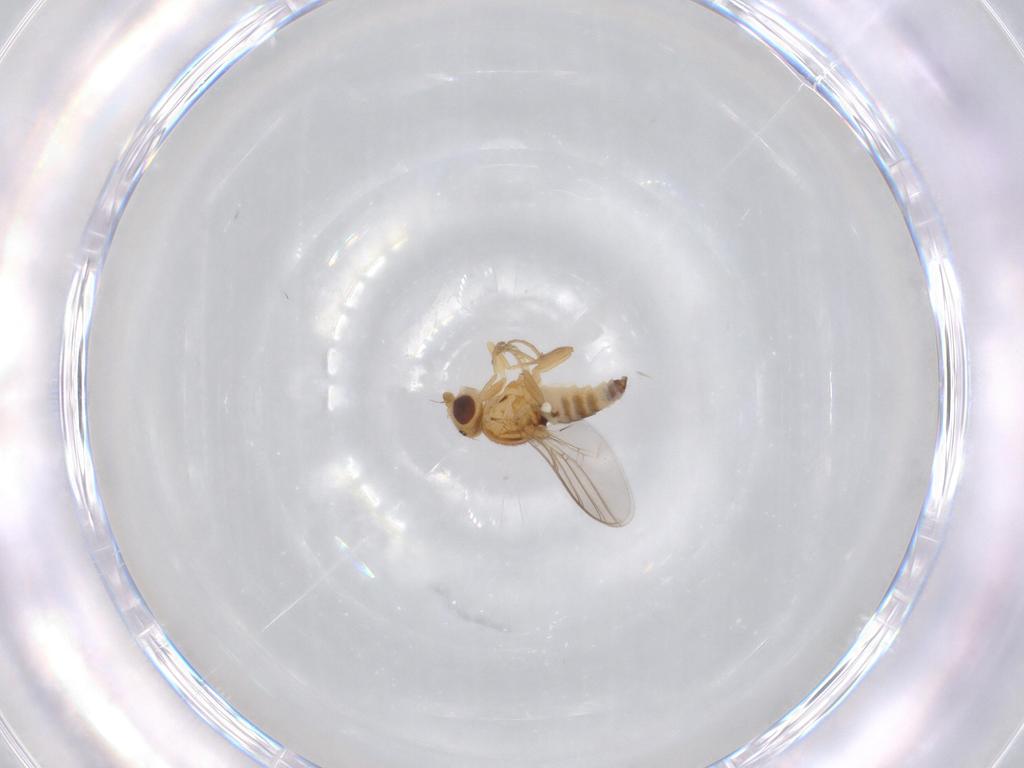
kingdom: Animalia
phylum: Arthropoda
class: Insecta
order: Diptera
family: Chloropidae
